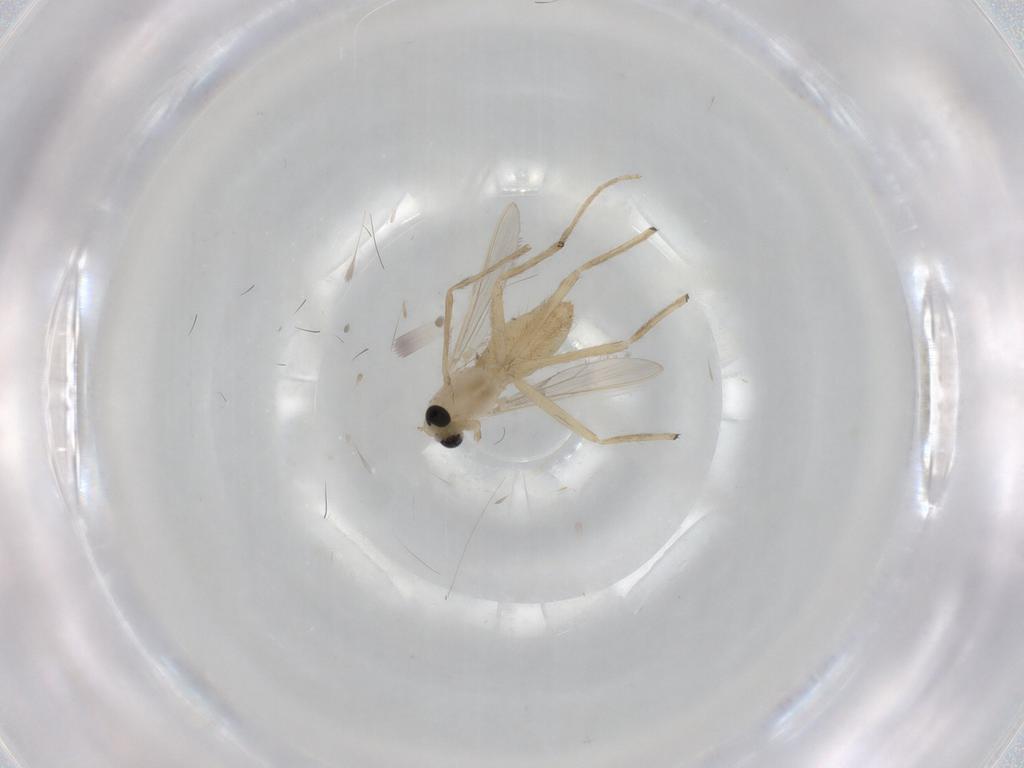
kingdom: Animalia
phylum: Arthropoda
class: Insecta
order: Diptera
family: Chironomidae
